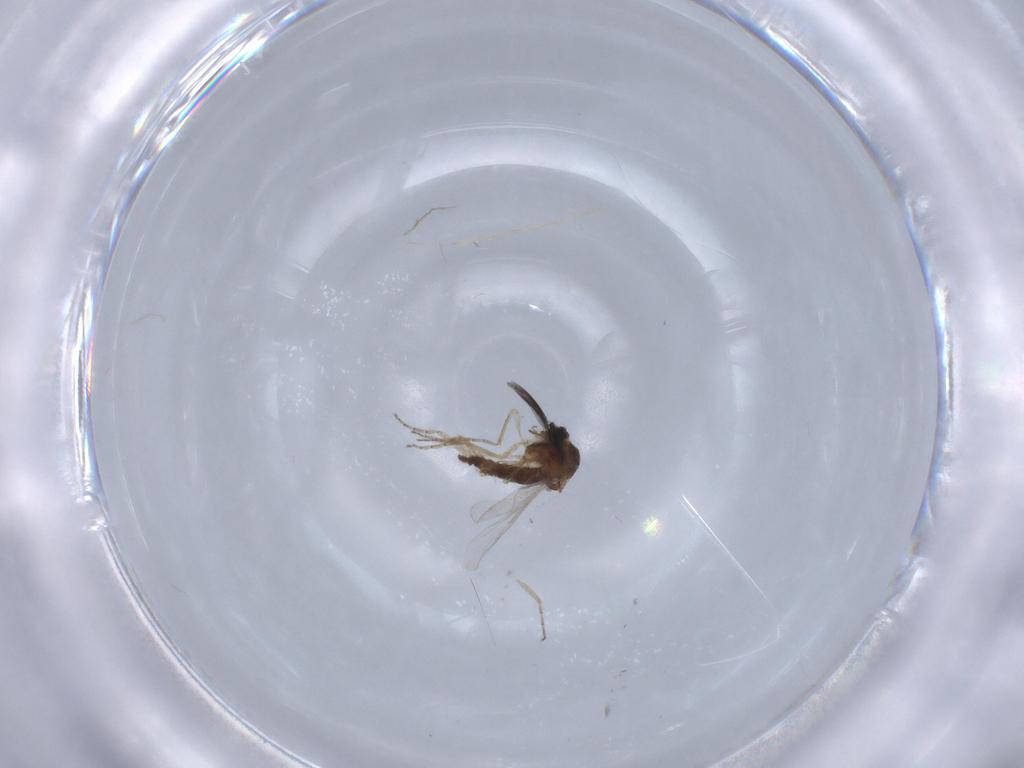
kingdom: Animalia
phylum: Arthropoda
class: Insecta
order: Diptera
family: Ceratopogonidae
